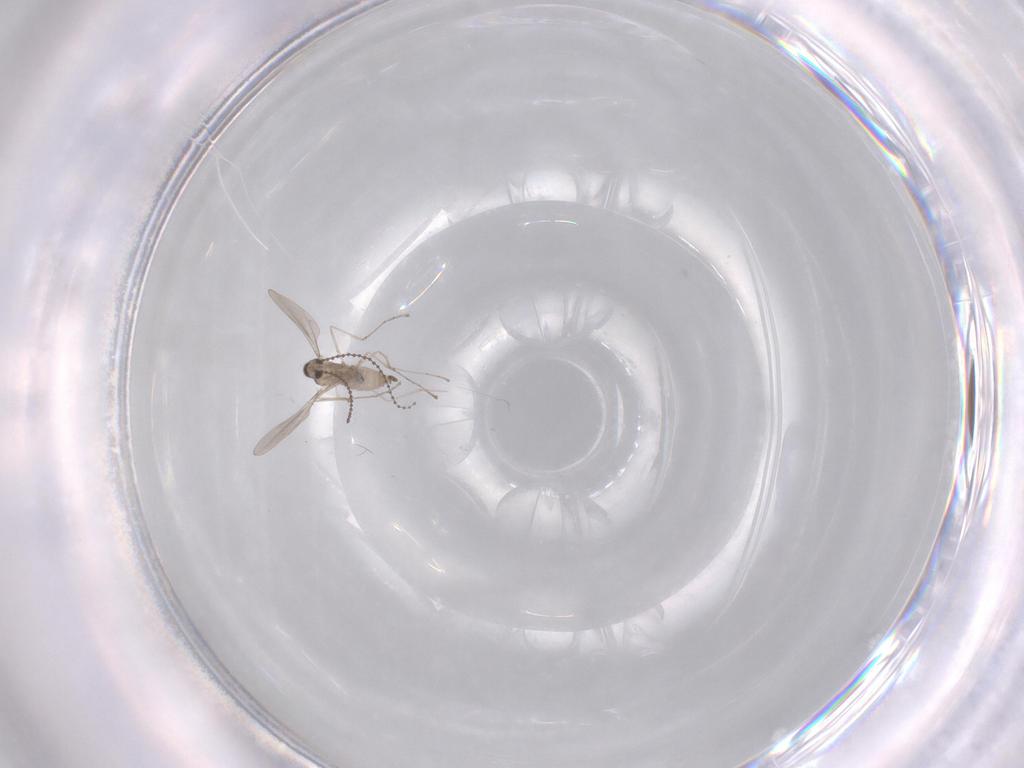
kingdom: Animalia
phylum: Arthropoda
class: Insecta
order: Diptera
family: Cecidomyiidae
